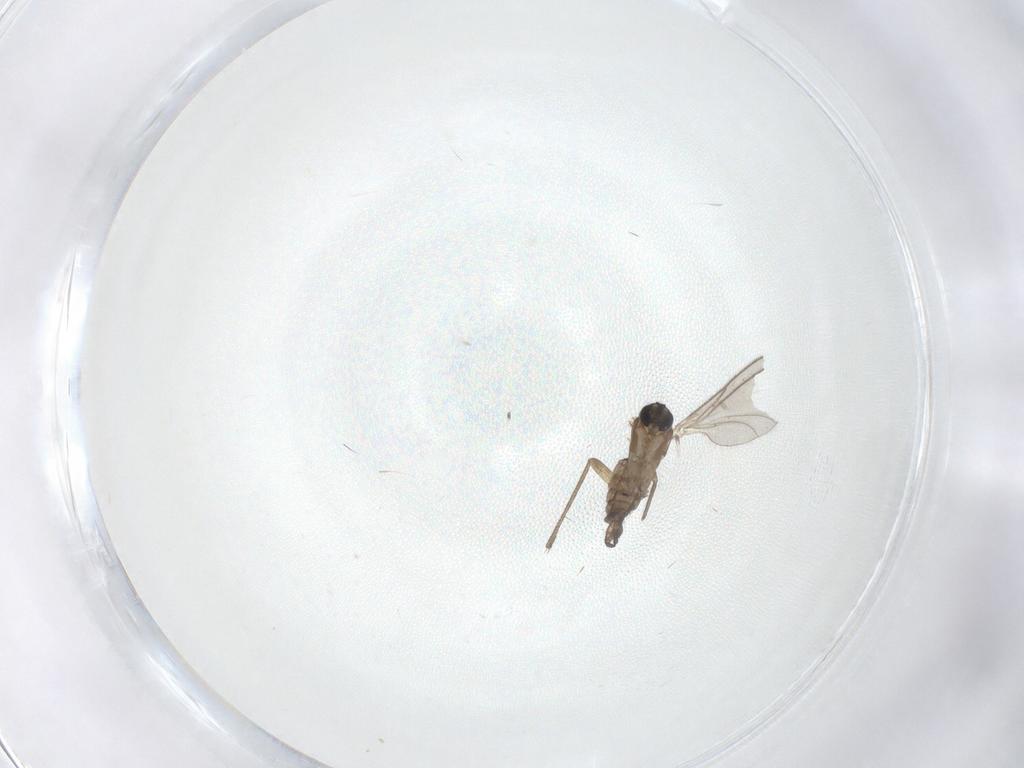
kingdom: Animalia
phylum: Arthropoda
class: Insecta
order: Diptera
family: Sciaridae
